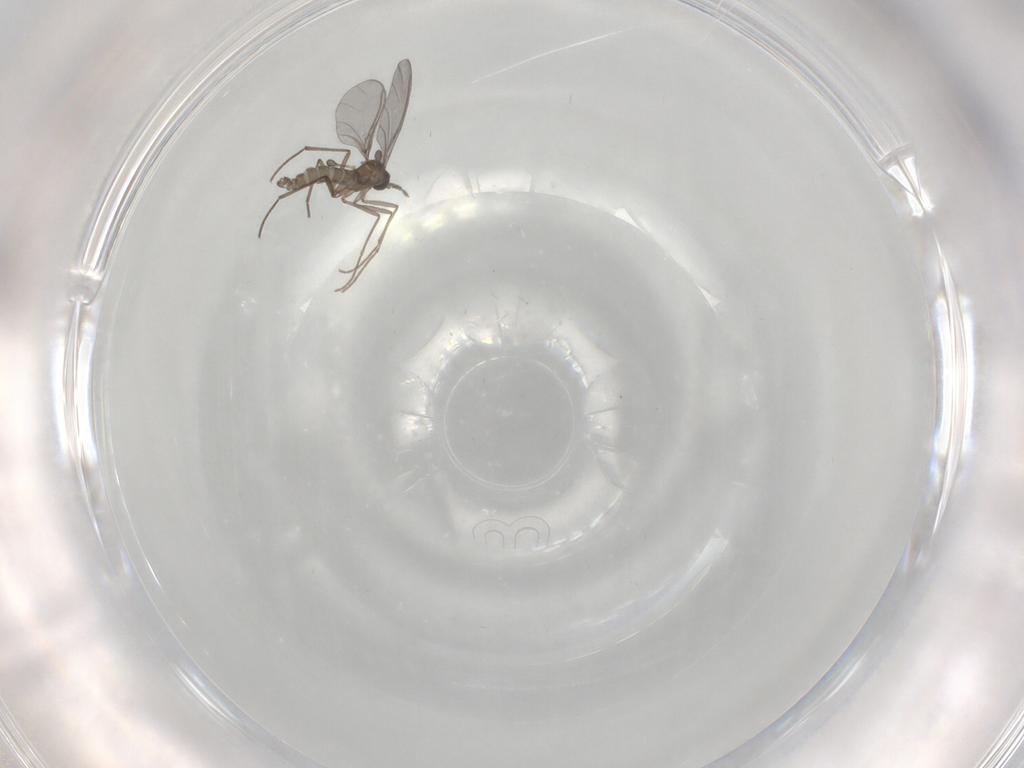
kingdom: Animalia
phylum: Arthropoda
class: Insecta
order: Diptera
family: Sciaridae
